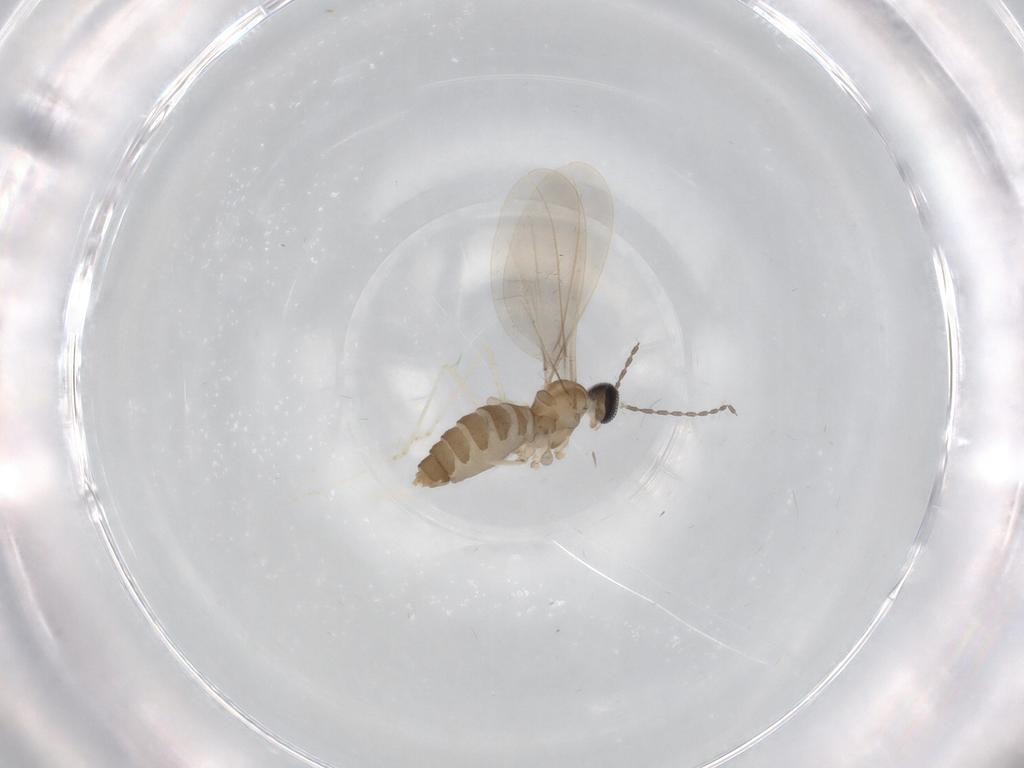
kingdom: Animalia
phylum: Arthropoda
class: Insecta
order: Diptera
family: Cecidomyiidae
